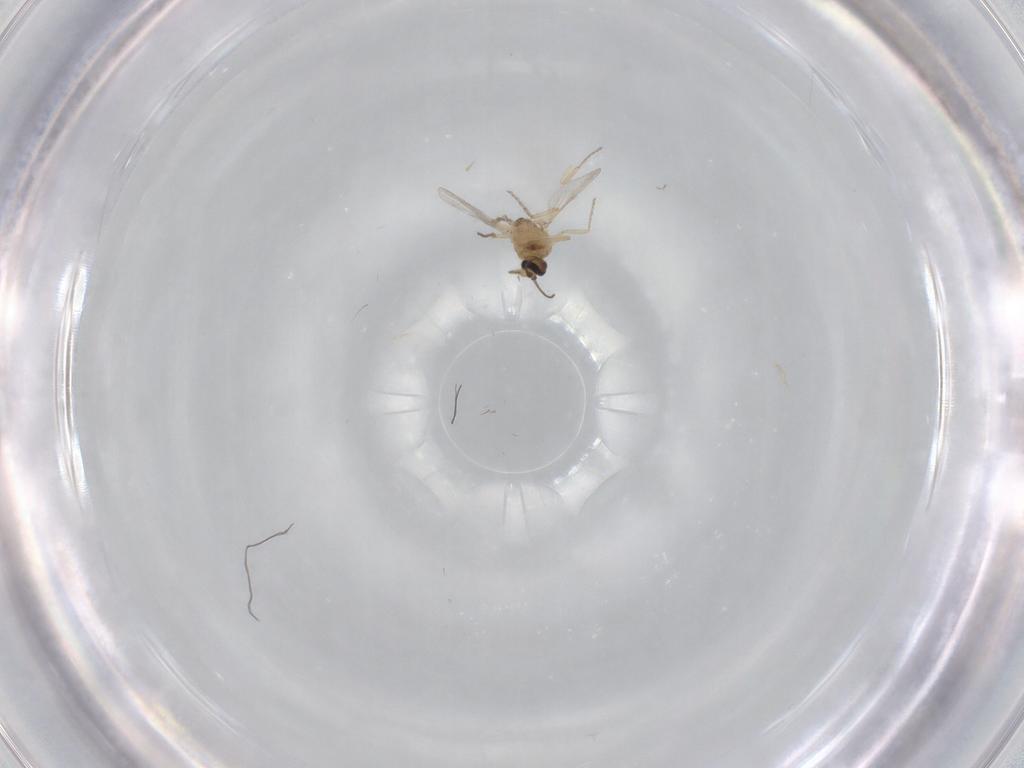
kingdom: Animalia
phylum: Arthropoda
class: Insecta
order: Diptera
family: Ceratopogonidae
